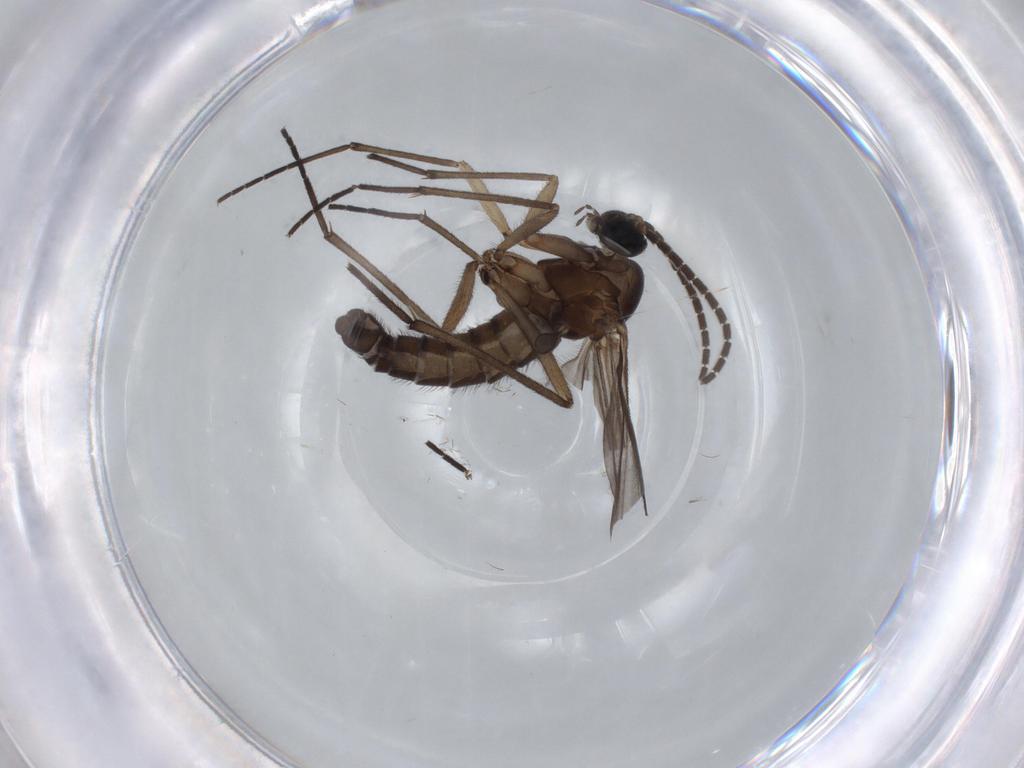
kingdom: Animalia
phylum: Arthropoda
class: Insecta
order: Diptera
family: Sciaridae
